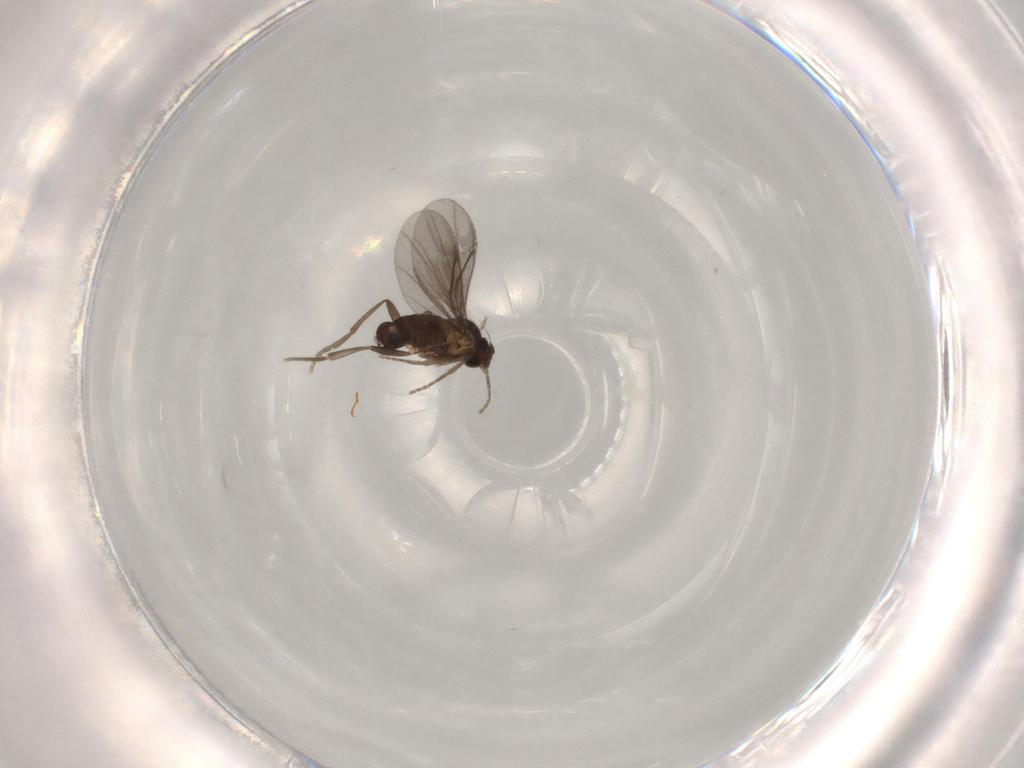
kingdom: Animalia
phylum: Arthropoda
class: Insecta
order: Diptera
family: Phoridae
